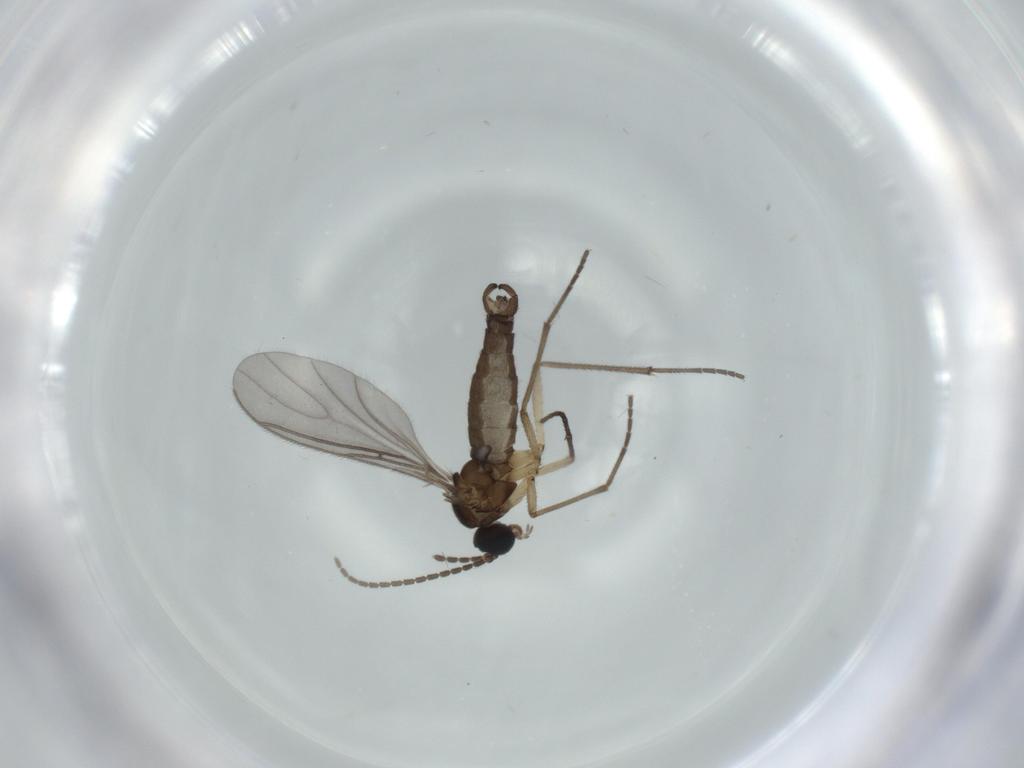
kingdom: Animalia
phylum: Arthropoda
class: Insecta
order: Diptera
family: Sciaridae
